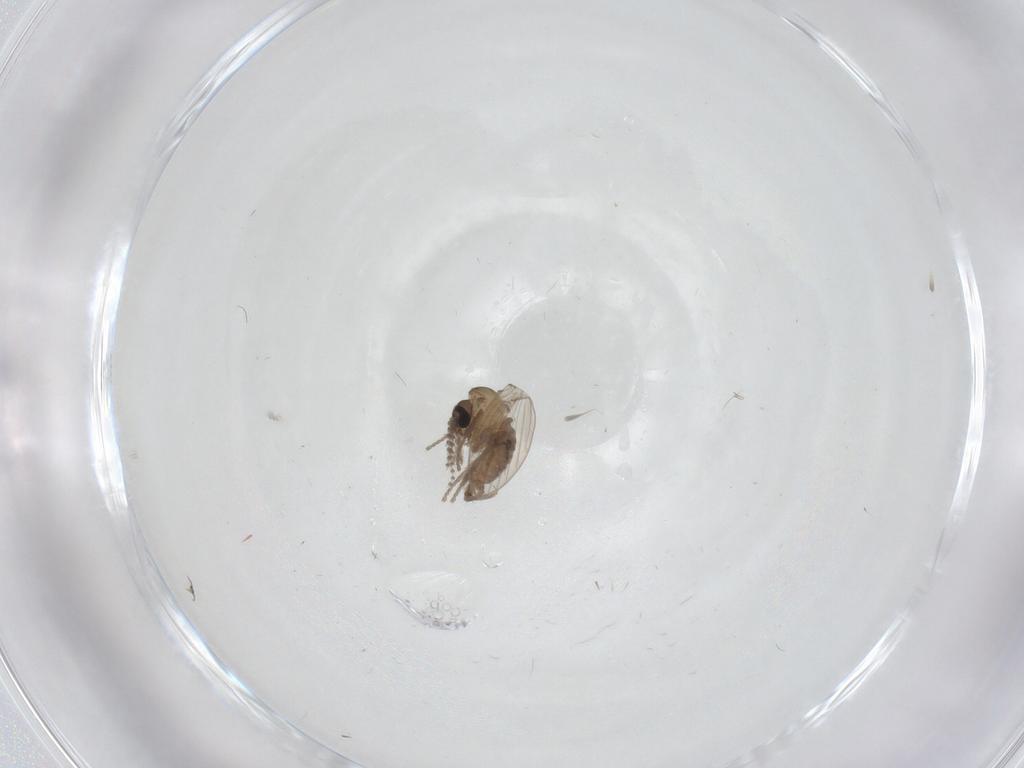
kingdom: Animalia
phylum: Arthropoda
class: Insecta
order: Diptera
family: Psychodidae
